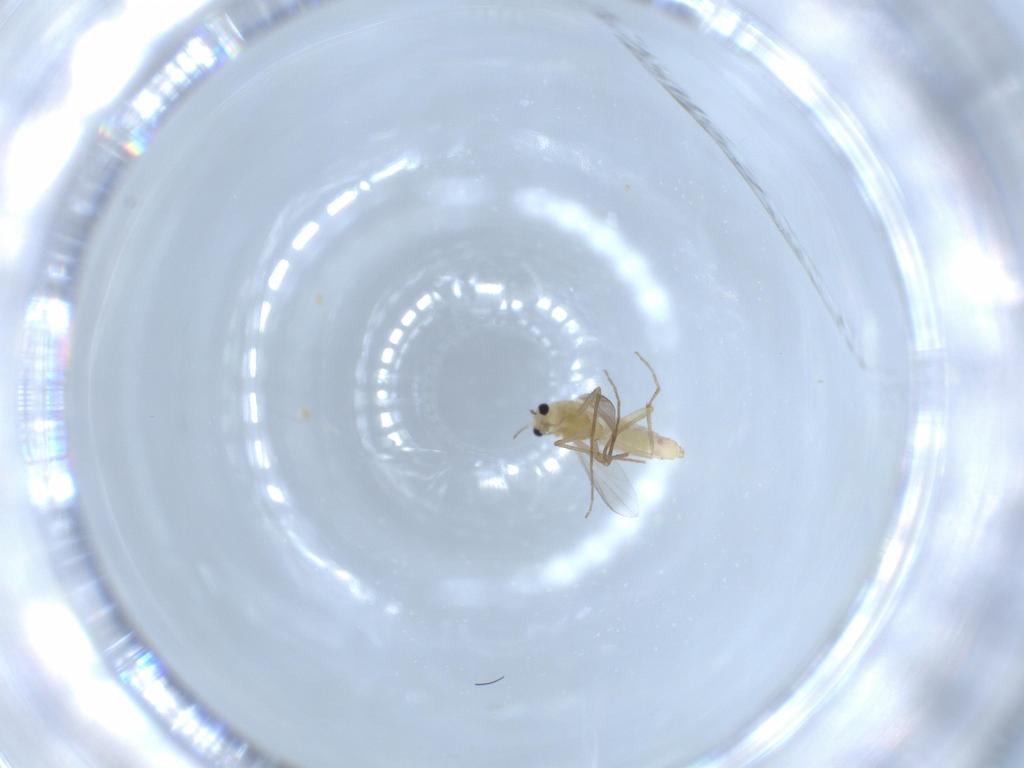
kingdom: Animalia
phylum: Arthropoda
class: Insecta
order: Diptera
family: Chironomidae
